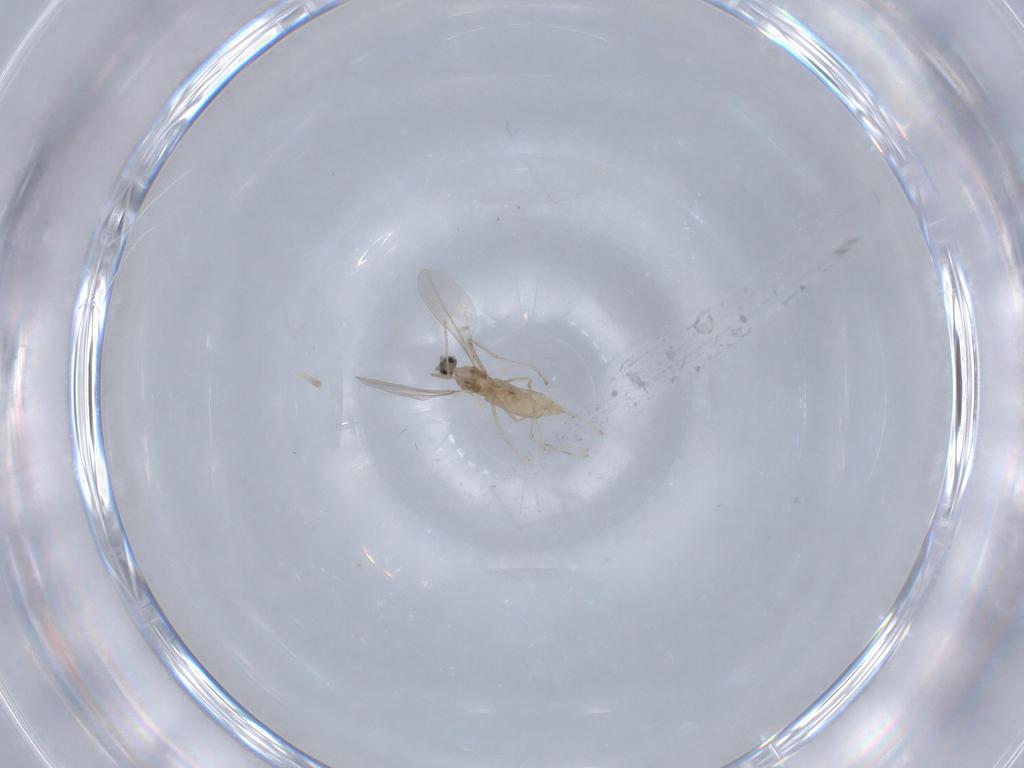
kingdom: Animalia
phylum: Arthropoda
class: Insecta
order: Diptera
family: Cecidomyiidae
